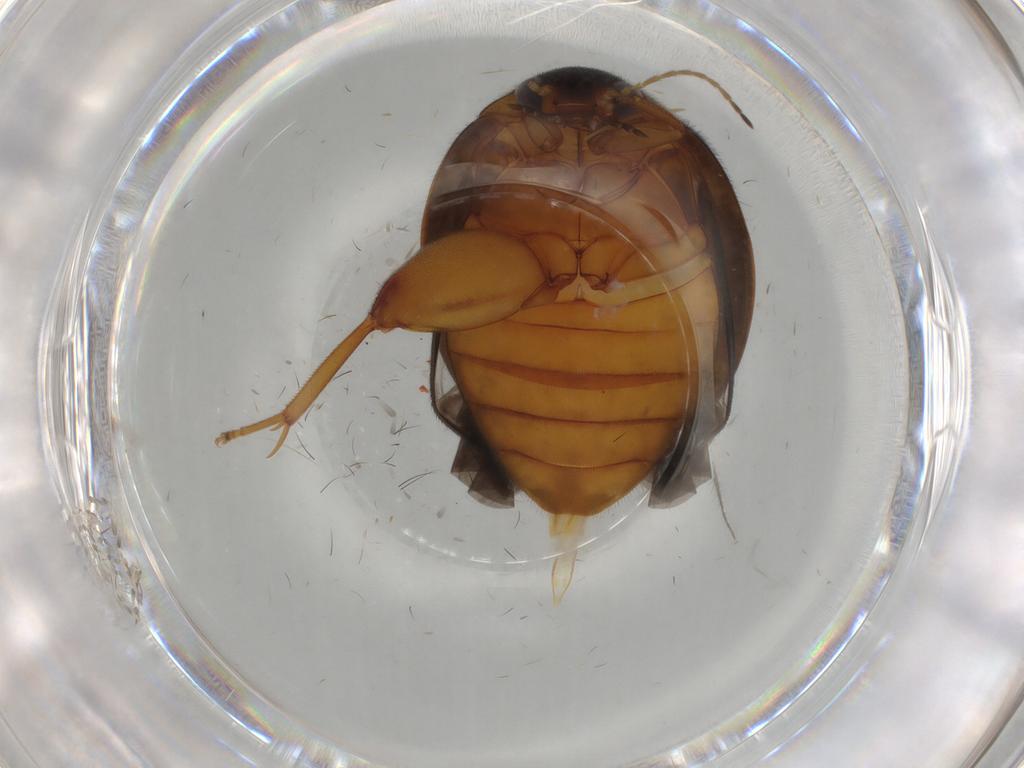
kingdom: Animalia
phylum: Arthropoda
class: Insecta
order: Coleoptera
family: Scirtidae
